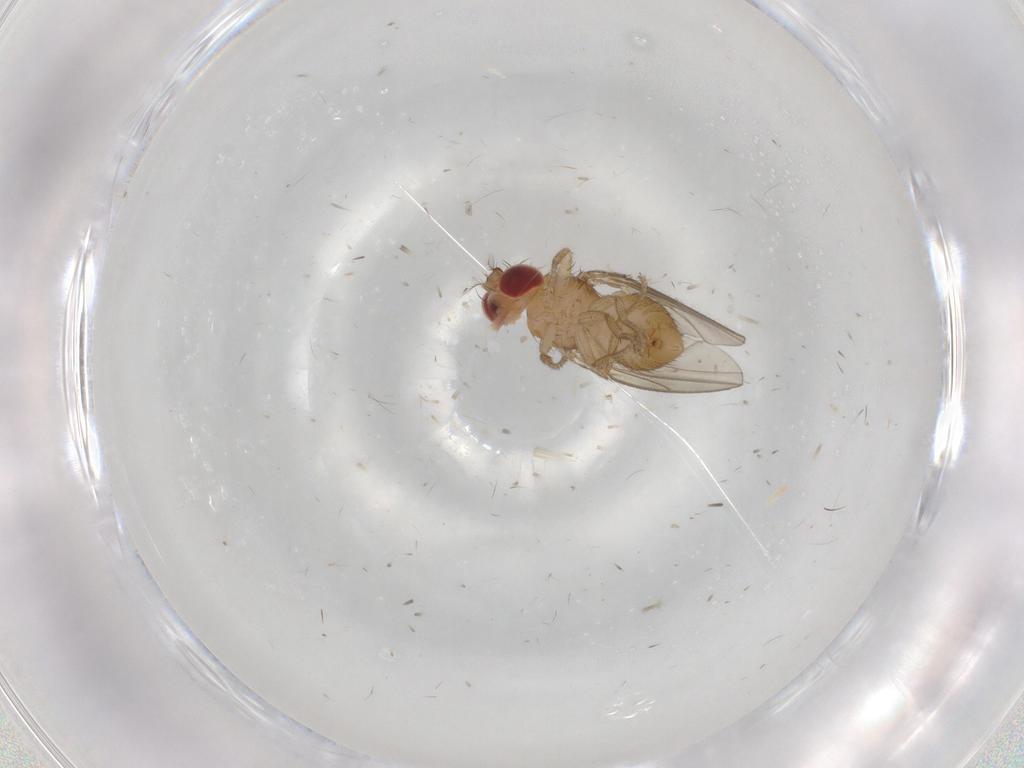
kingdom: Animalia
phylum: Arthropoda
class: Insecta
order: Diptera
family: Drosophilidae
